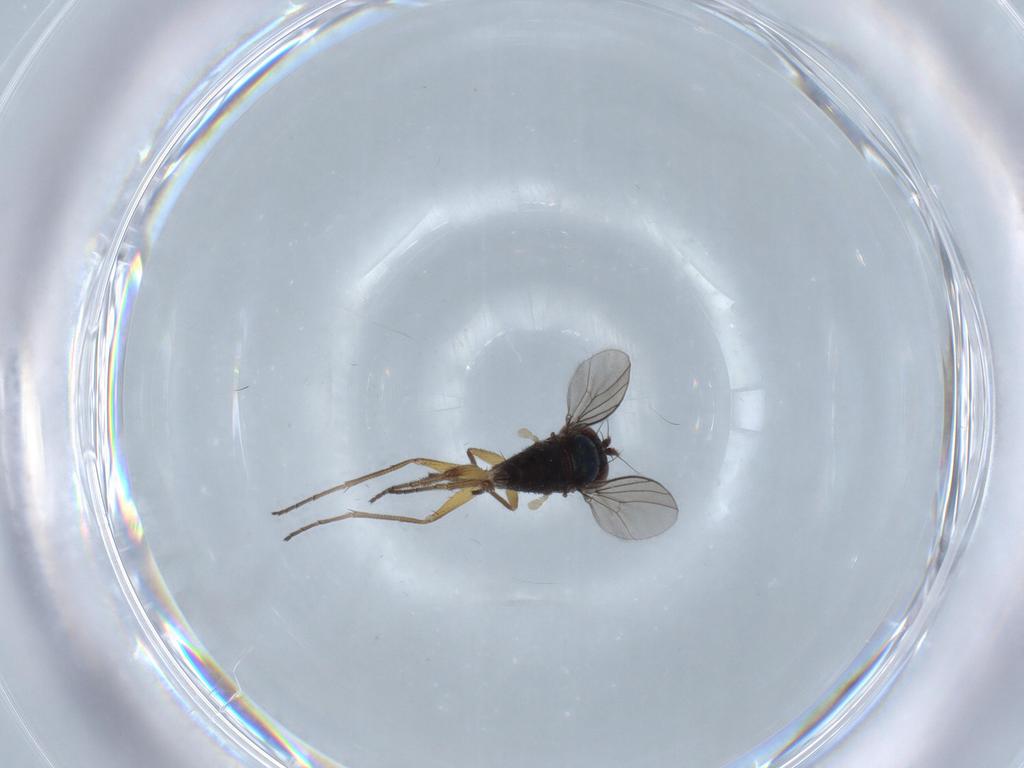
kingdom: Animalia
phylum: Arthropoda
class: Insecta
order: Diptera
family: Dolichopodidae
